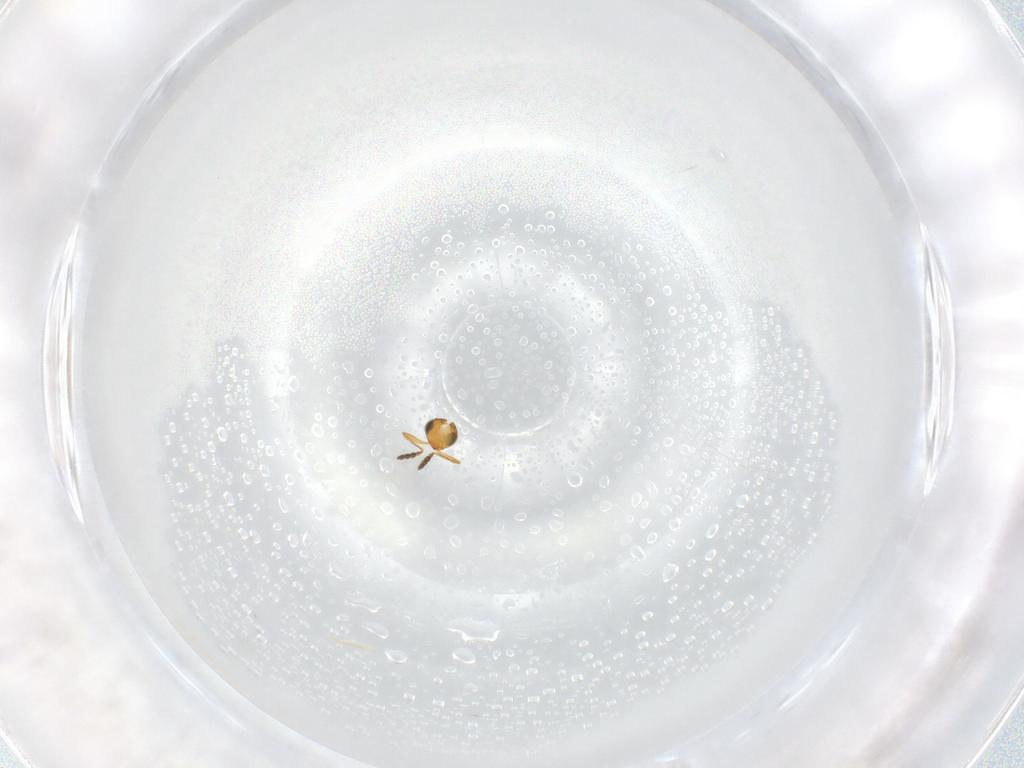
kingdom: Animalia
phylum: Arthropoda
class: Insecta
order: Hymenoptera
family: Platygastridae
